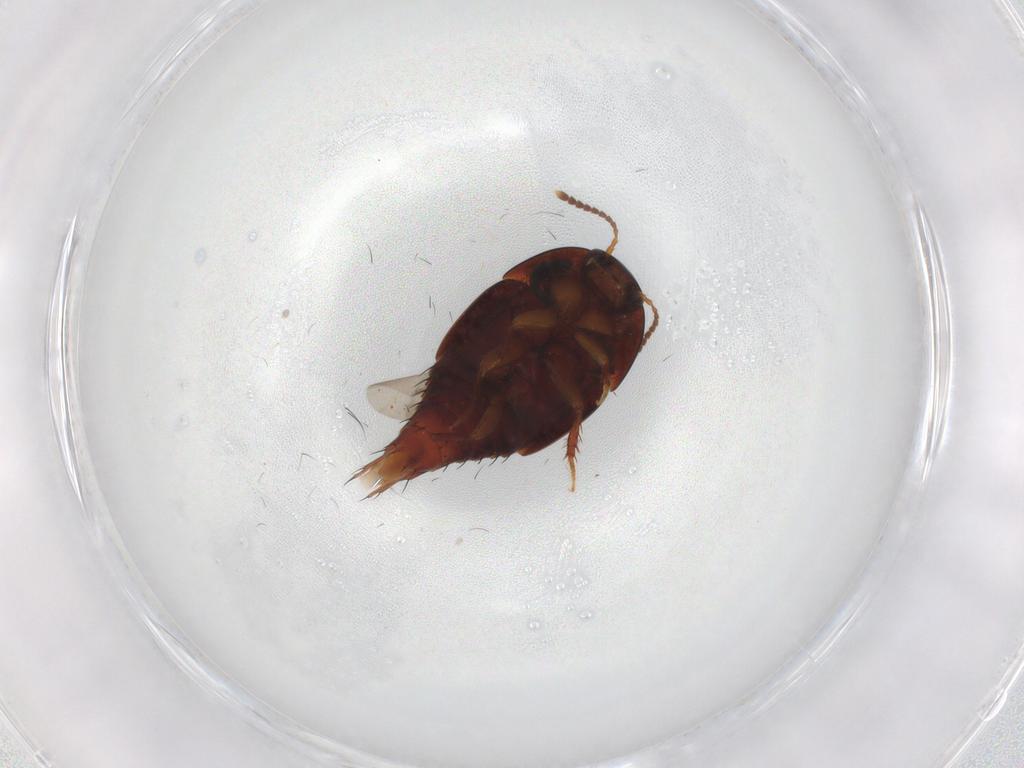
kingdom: Animalia
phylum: Arthropoda
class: Insecta
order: Coleoptera
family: Staphylinidae
